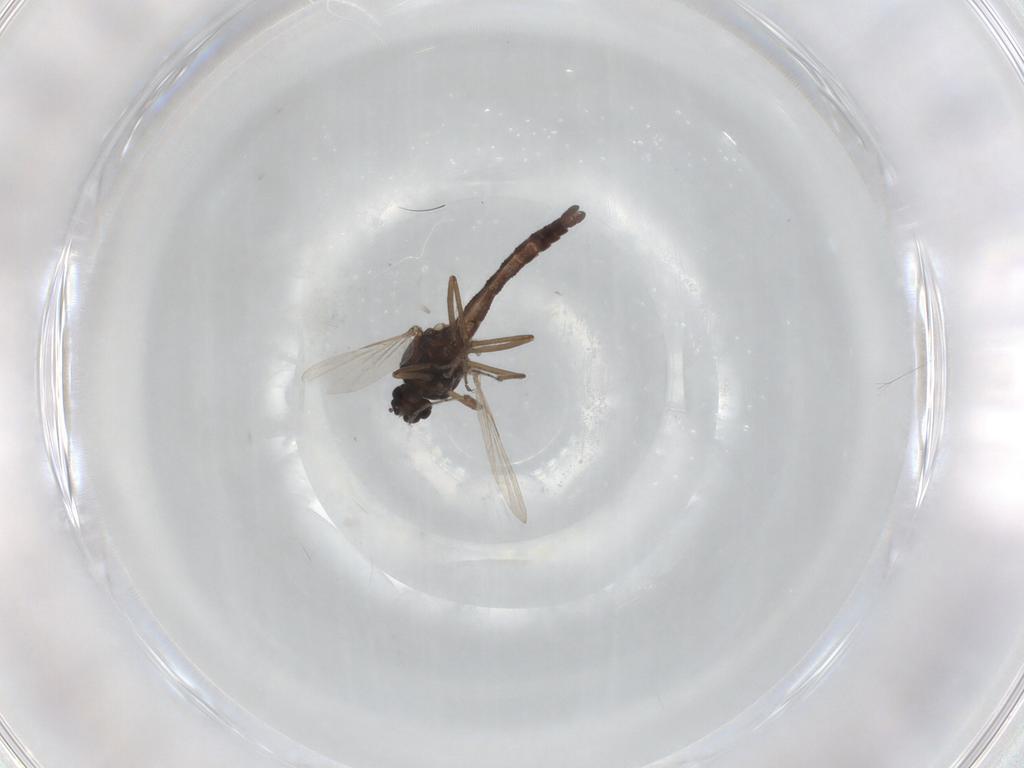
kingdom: Animalia
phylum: Arthropoda
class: Insecta
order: Diptera
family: Ceratopogonidae
